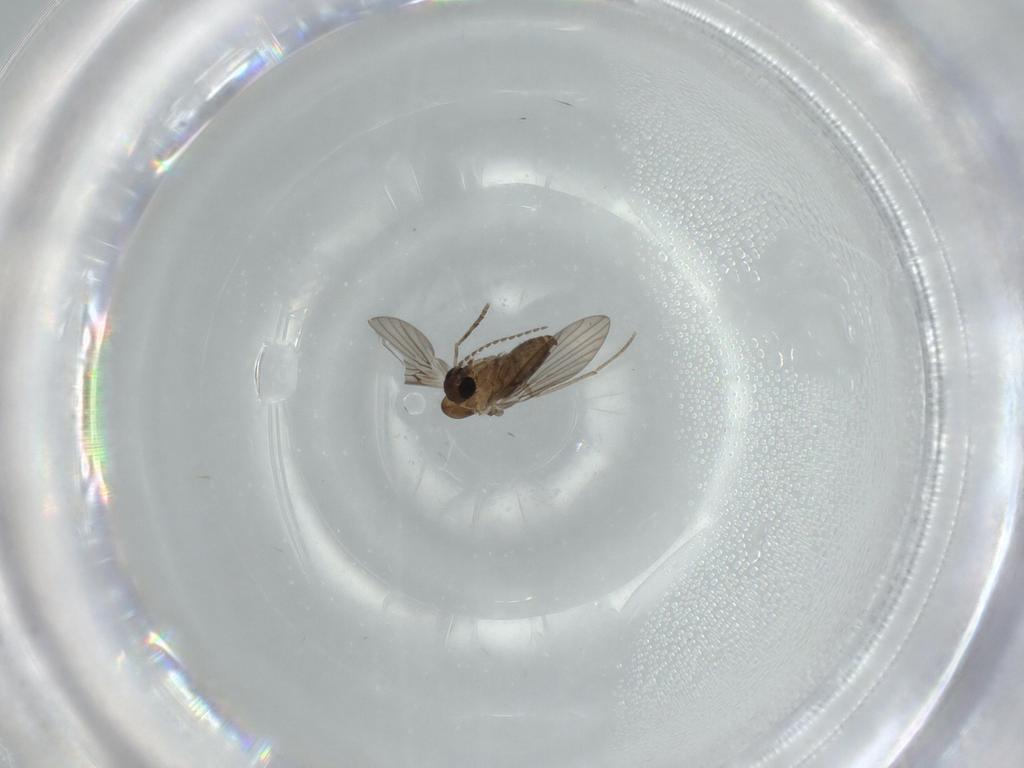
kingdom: Animalia
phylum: Arthropoda
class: Insecta
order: Diptera
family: Psychodidae
